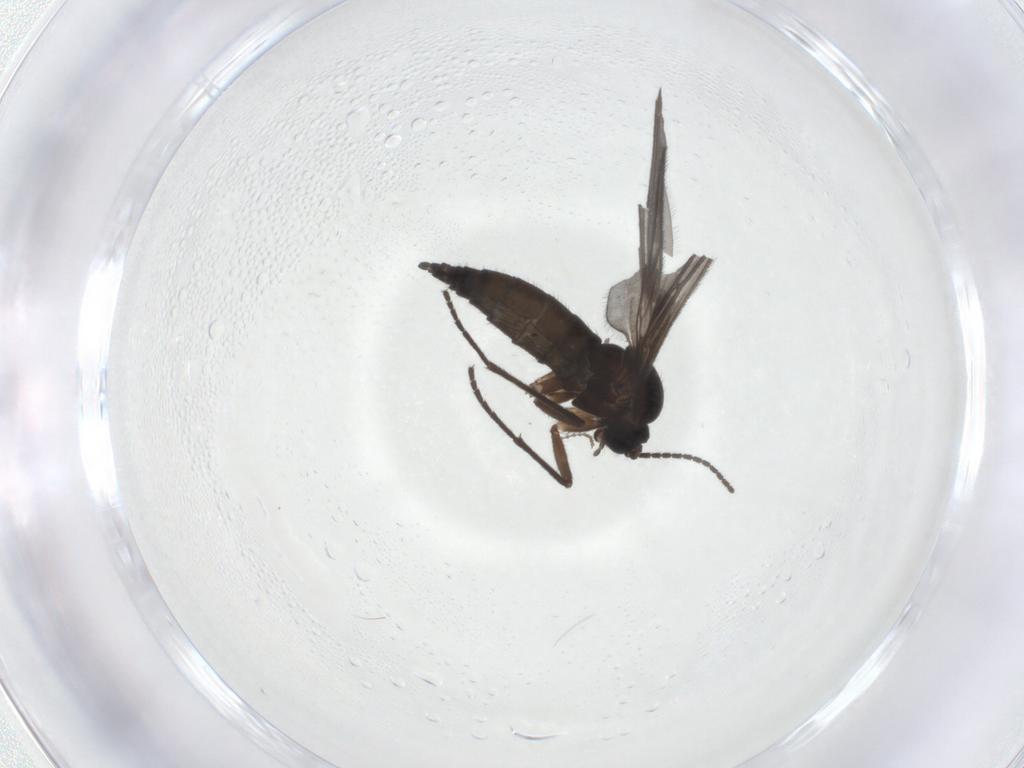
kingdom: Animalia
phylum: Arthropoda
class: Insecta
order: Diptera
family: Sciaridae
